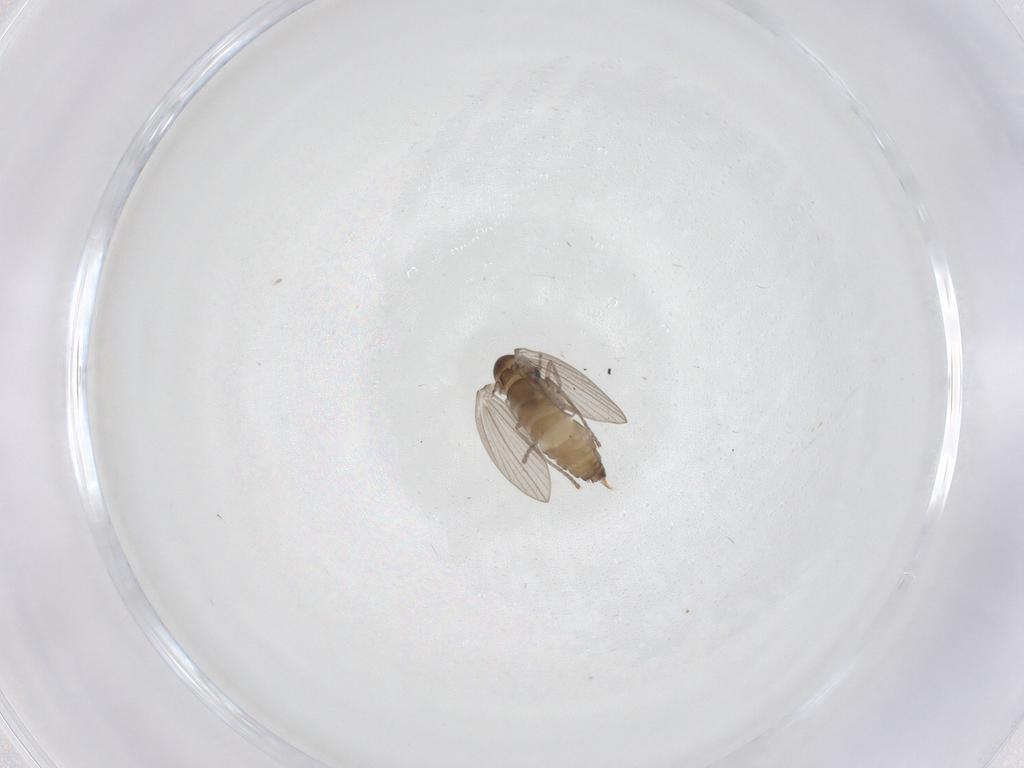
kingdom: Animalia
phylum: Arthropoda
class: Insecta
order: Diptera
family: Psychodidae
